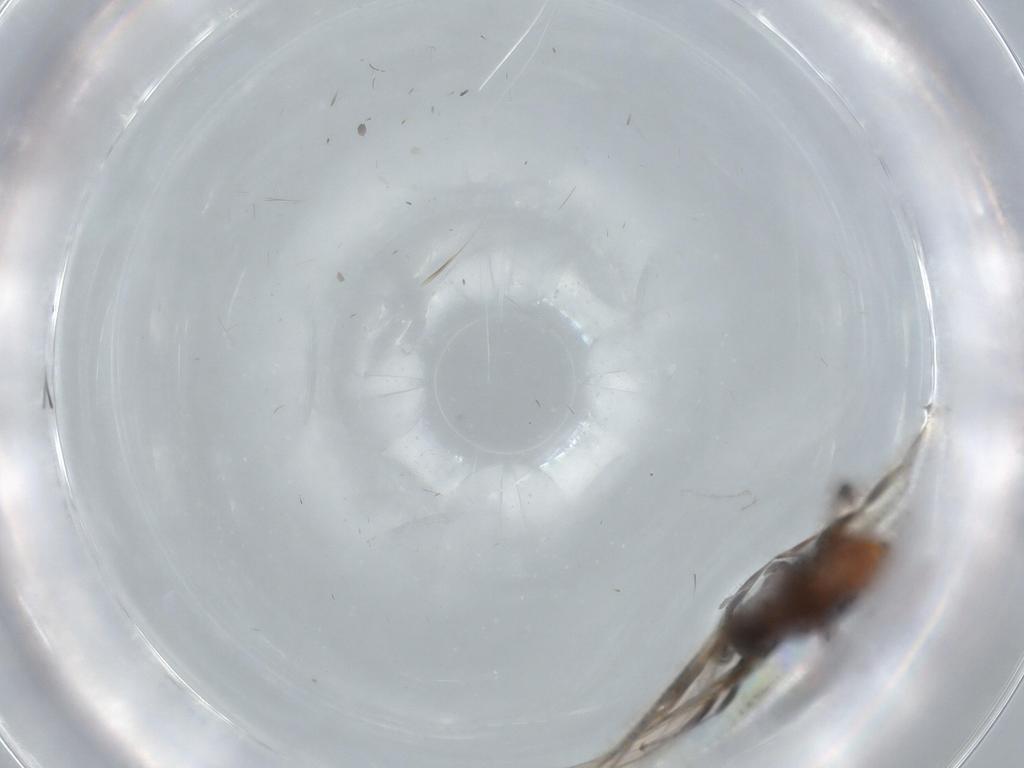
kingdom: Animalia
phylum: Arthropoda
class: Insecta
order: Hymenoptera
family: Formicidae
